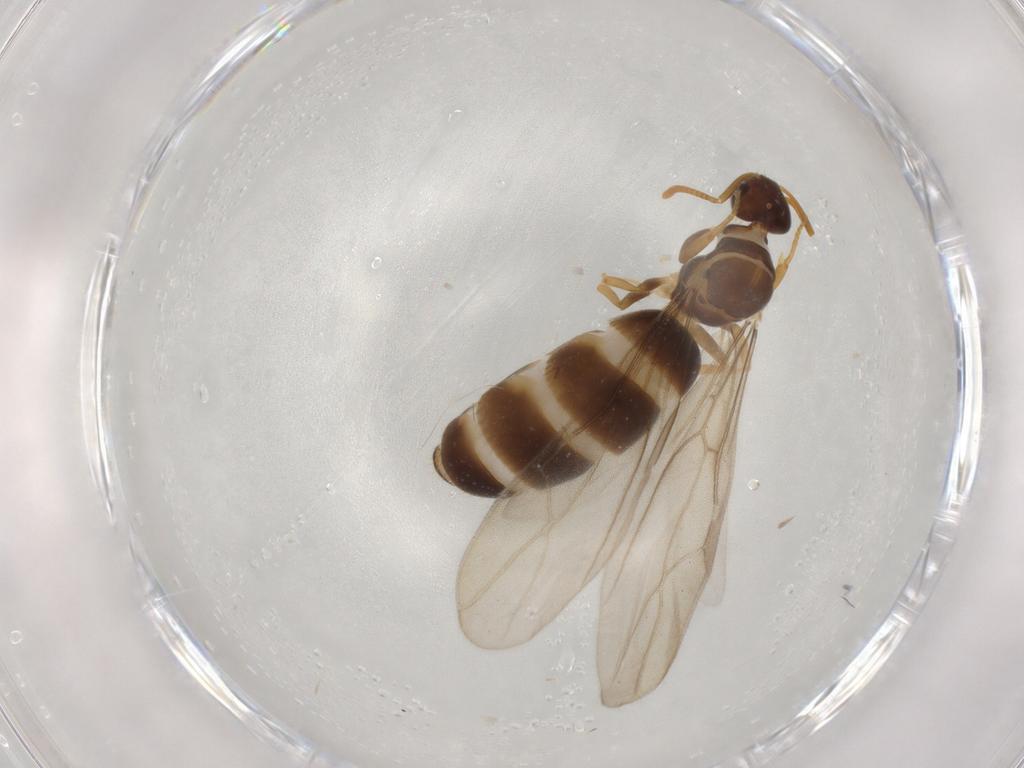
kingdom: Animalia
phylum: Arthropoda
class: Insecta
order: Hymenoptera
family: Formicidae
